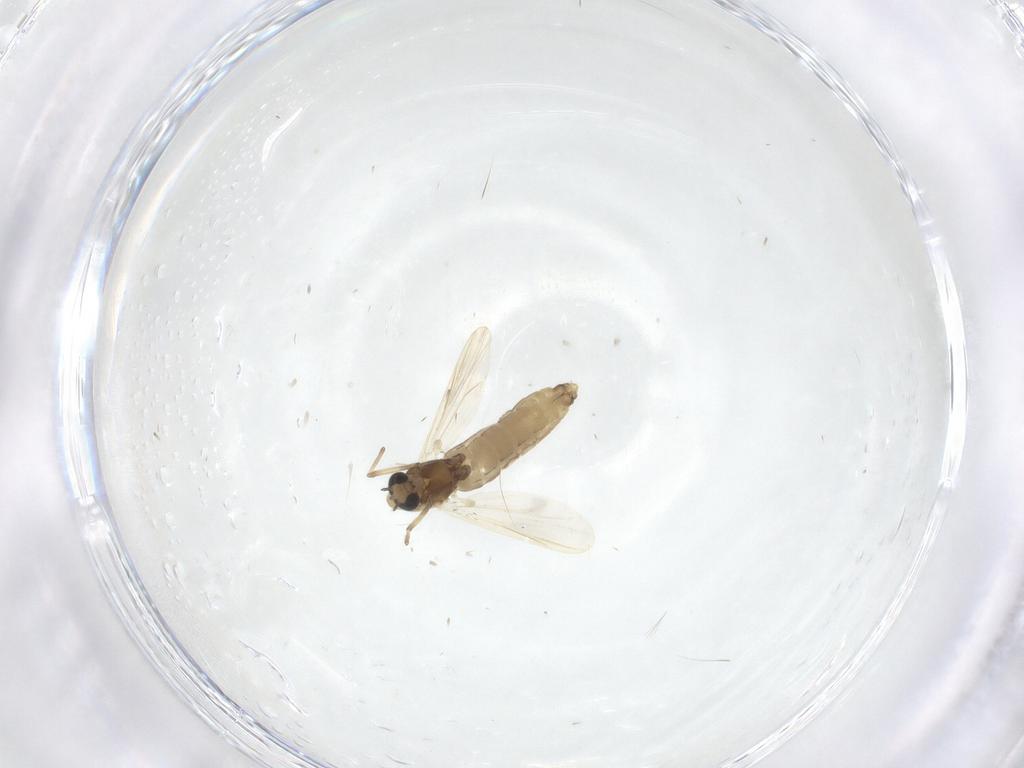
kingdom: Animalia
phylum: Arthropoda
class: Insecta
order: Diptera
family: Chironomidae
